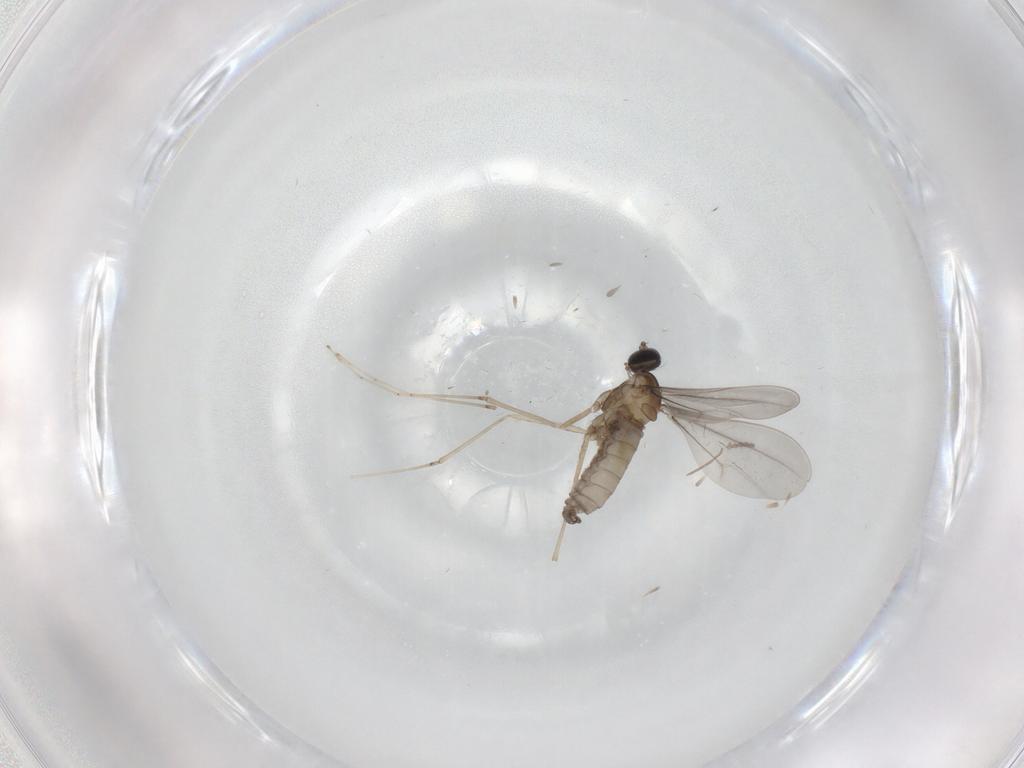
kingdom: Animalia
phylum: Arthropoda
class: Insecta
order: Diptera
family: Cecidomyiidae
